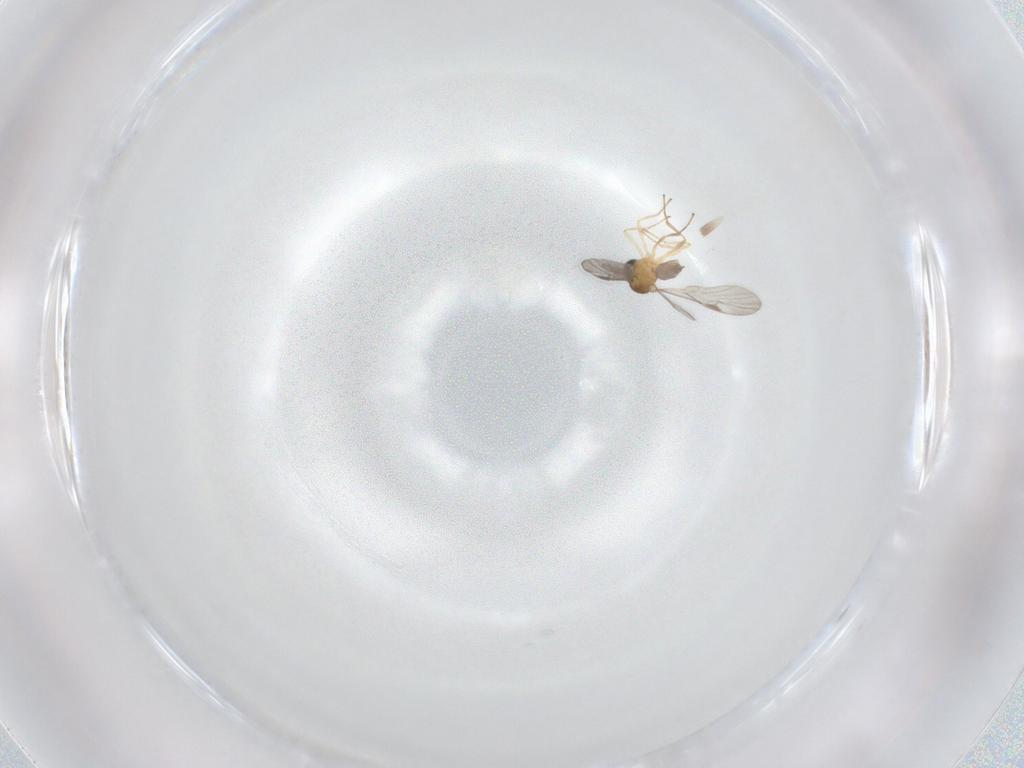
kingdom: Animalia
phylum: Arthropoda
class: Insecta
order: Hymenoptera
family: Braconidae
